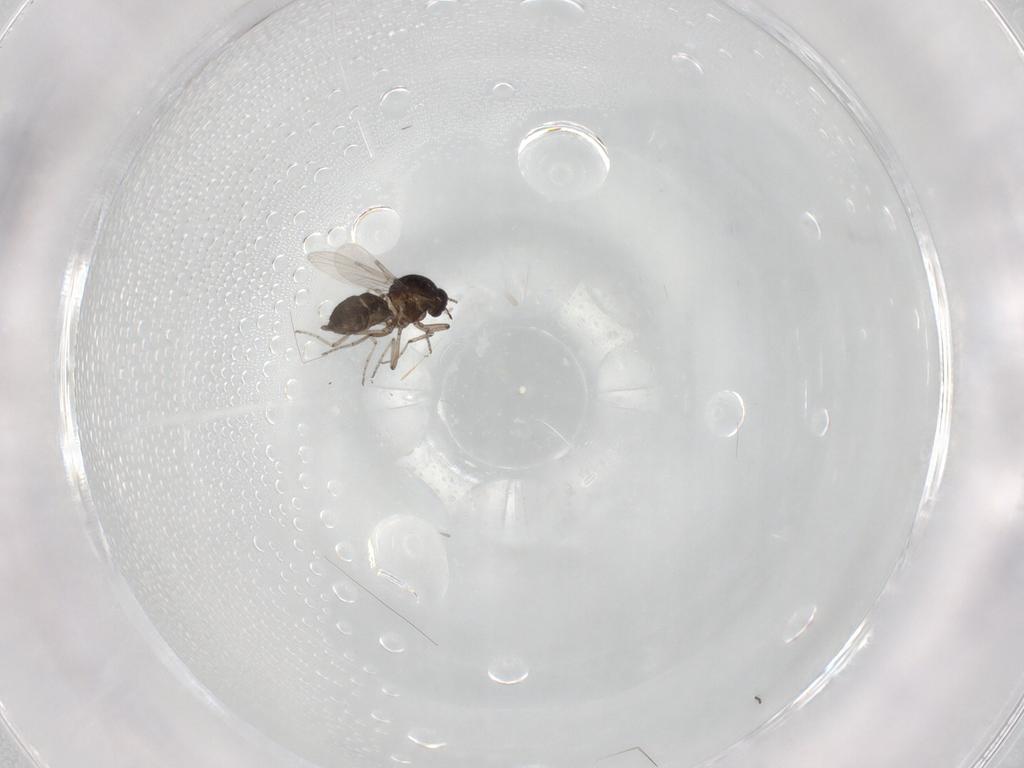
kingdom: Animalia
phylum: Arthropoda
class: Insecta
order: Diptera
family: Ceratopogonidae
